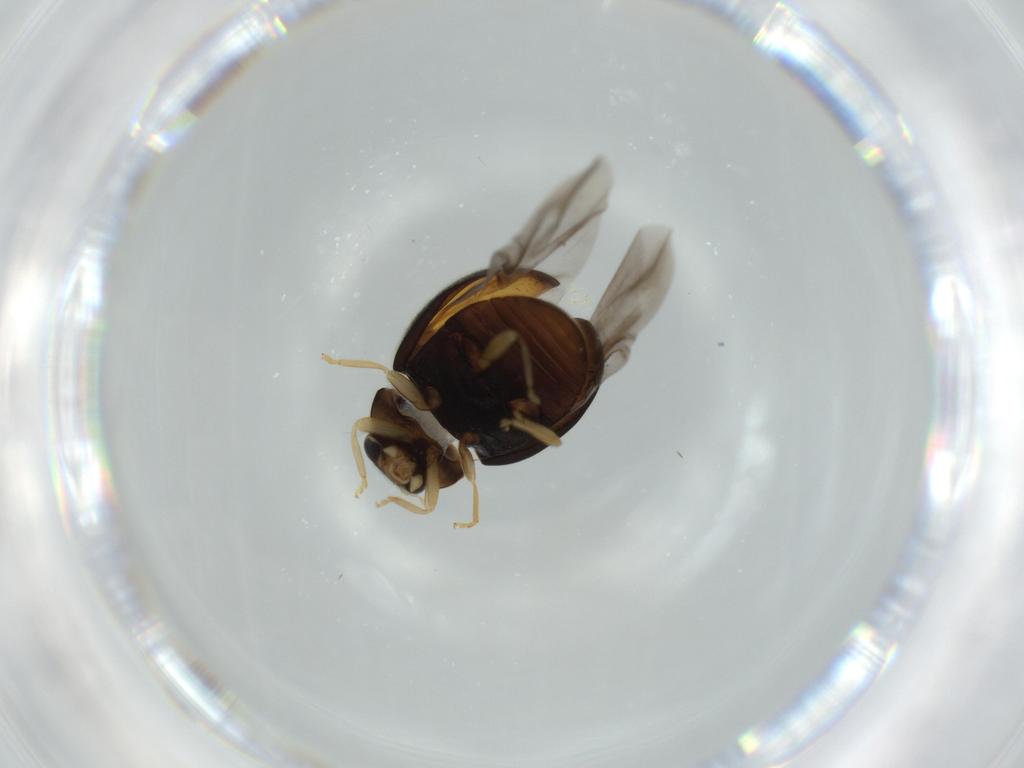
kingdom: Animalia
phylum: Arthropoda
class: Insecta
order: Coleoptera
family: Coccinellidae
